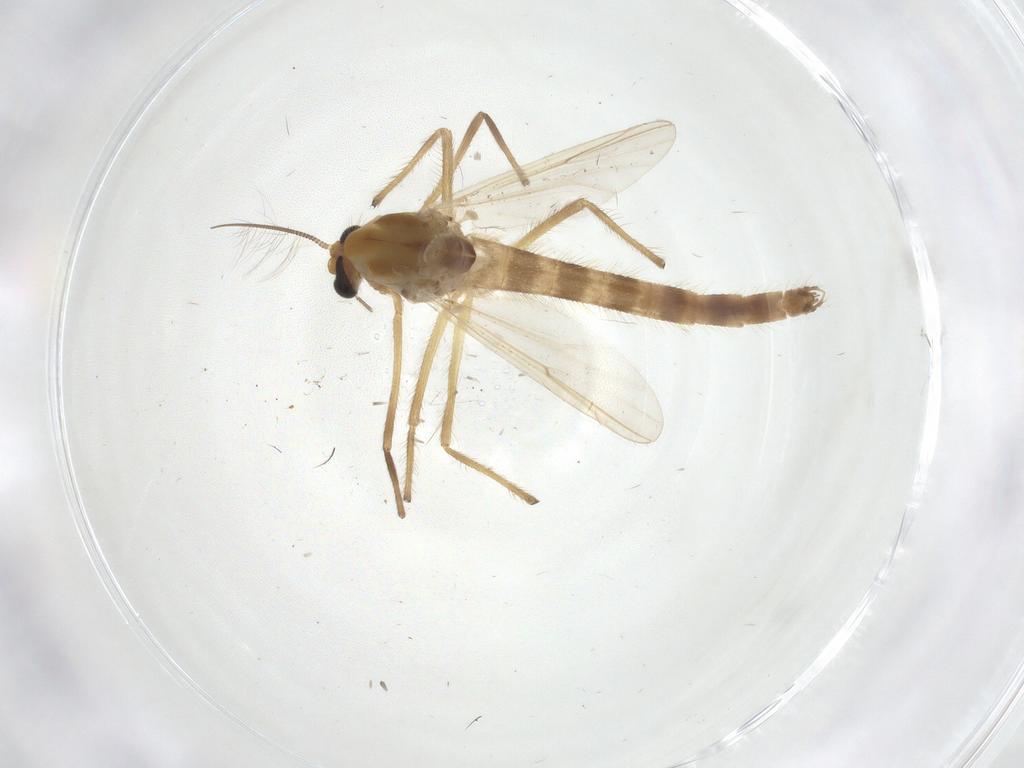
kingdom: Animalia
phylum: Arthropoda
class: Insecta
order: Diptera
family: Chironomidae
